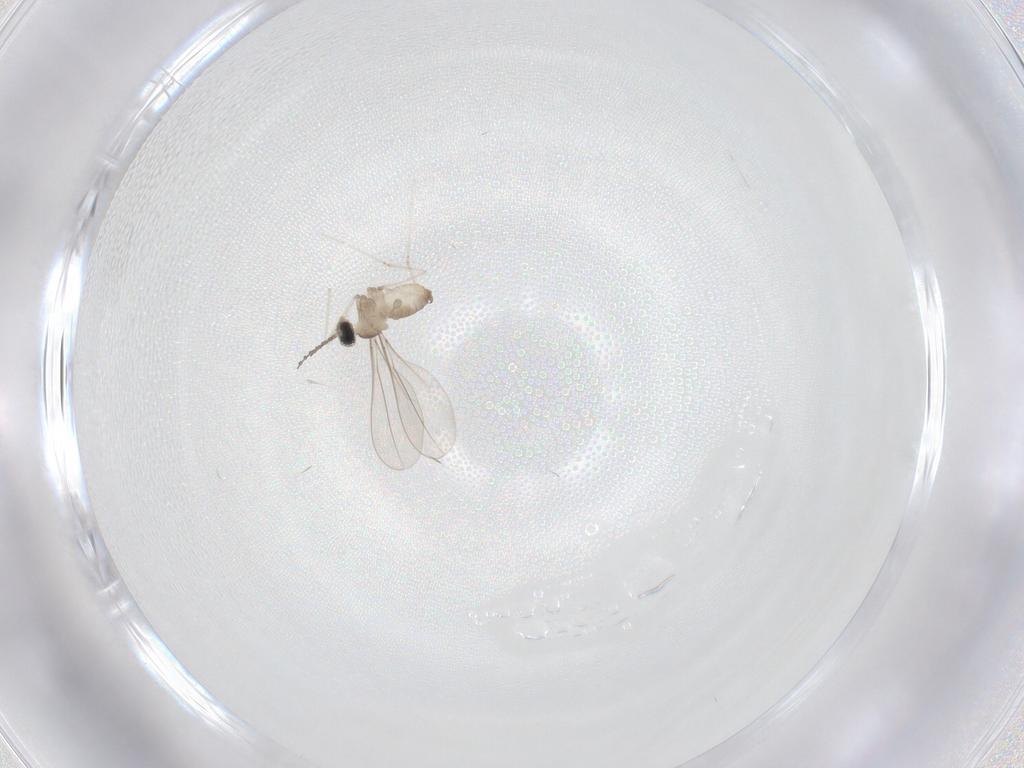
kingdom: Animalia
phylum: Arthropoda
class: Insecta
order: Diptera
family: Cecidomyiidae
